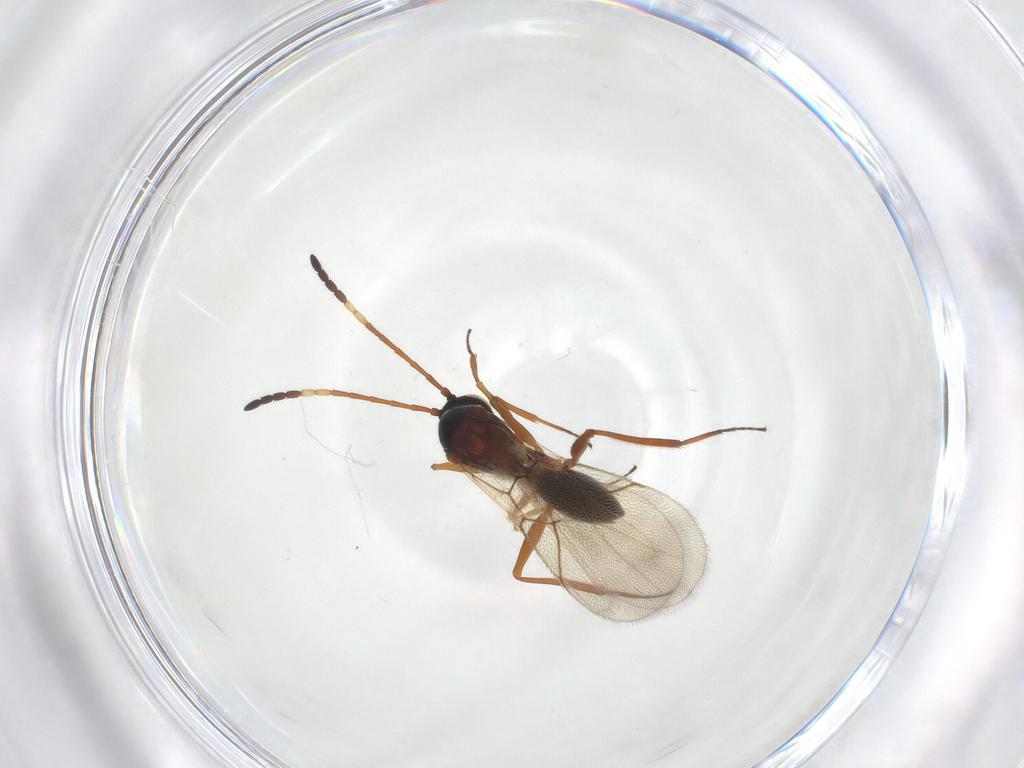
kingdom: Animalia
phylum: Arthropoda
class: Insecta
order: Hymenoptera
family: Figitidae
